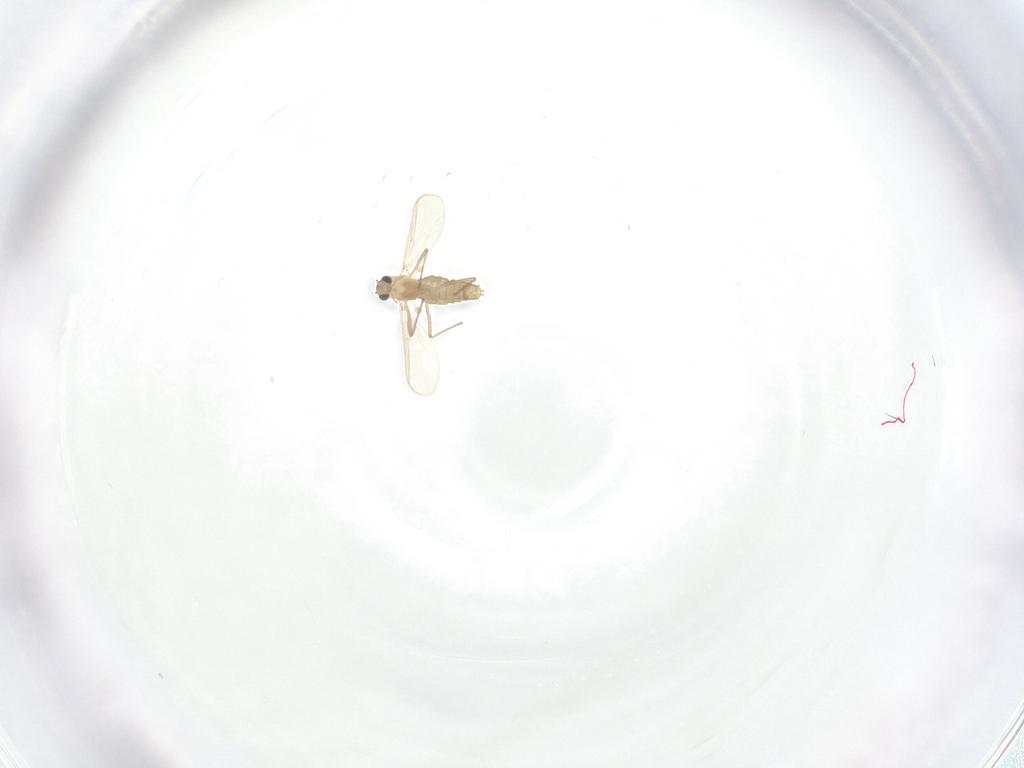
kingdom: Animalia
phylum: Arthropoda
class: Insecta
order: Diptera
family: Chironomidae
